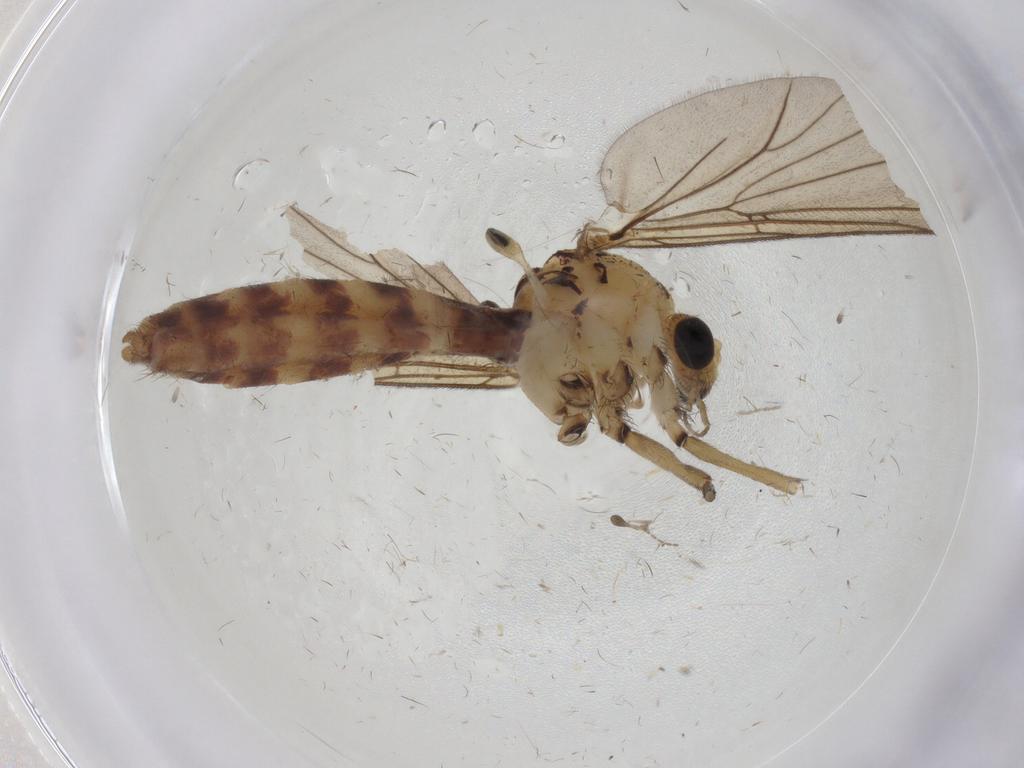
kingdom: Animalia
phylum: Arthropoda
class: Insecta
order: Diptera
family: Mycetophilidae
